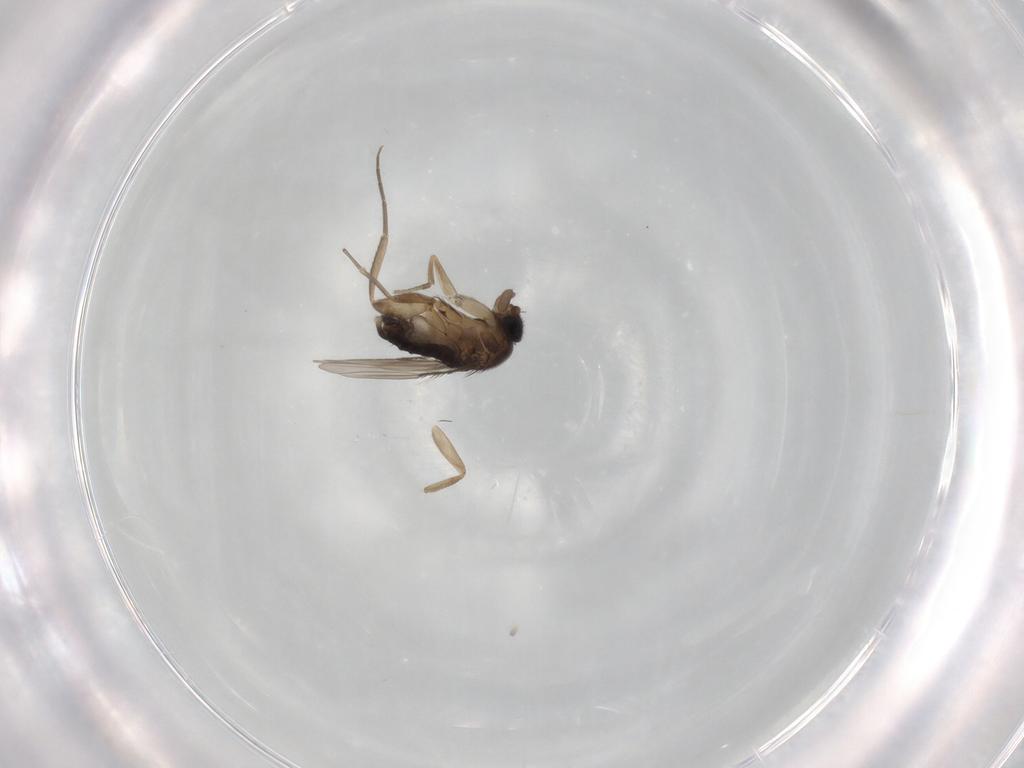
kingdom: Animalia
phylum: Arthropoda
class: Insecta
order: Diptera
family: Phoridae
